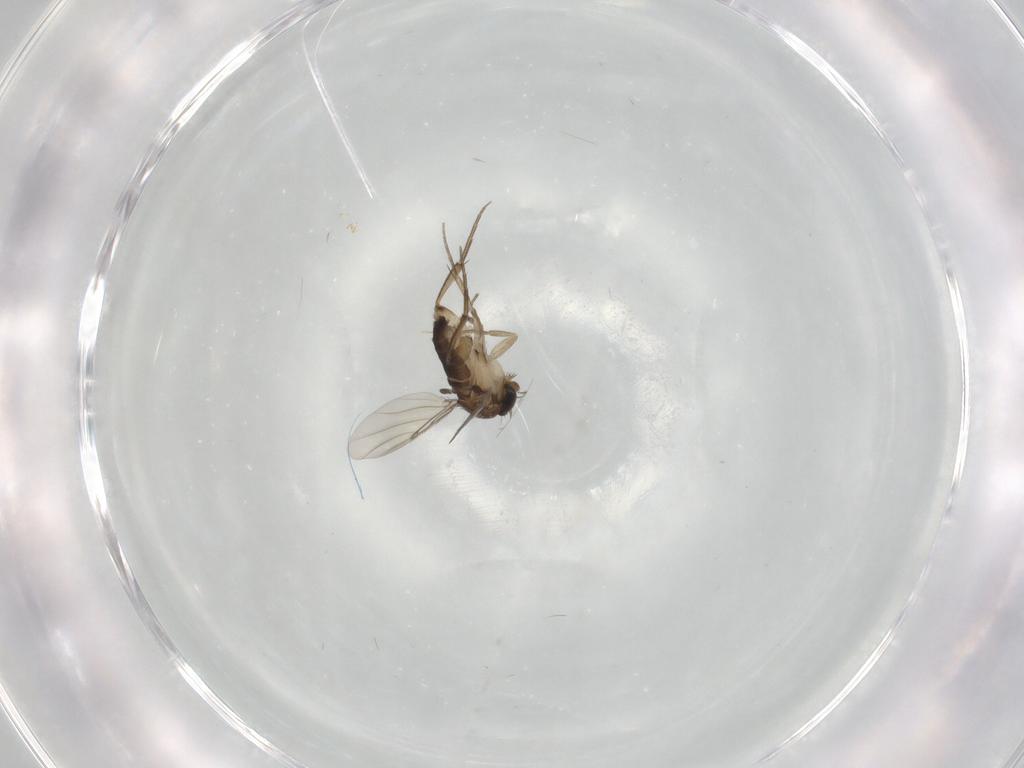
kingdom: Animalia
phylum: Arthropoda
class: Insecta
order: Diptera
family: Phoridae
